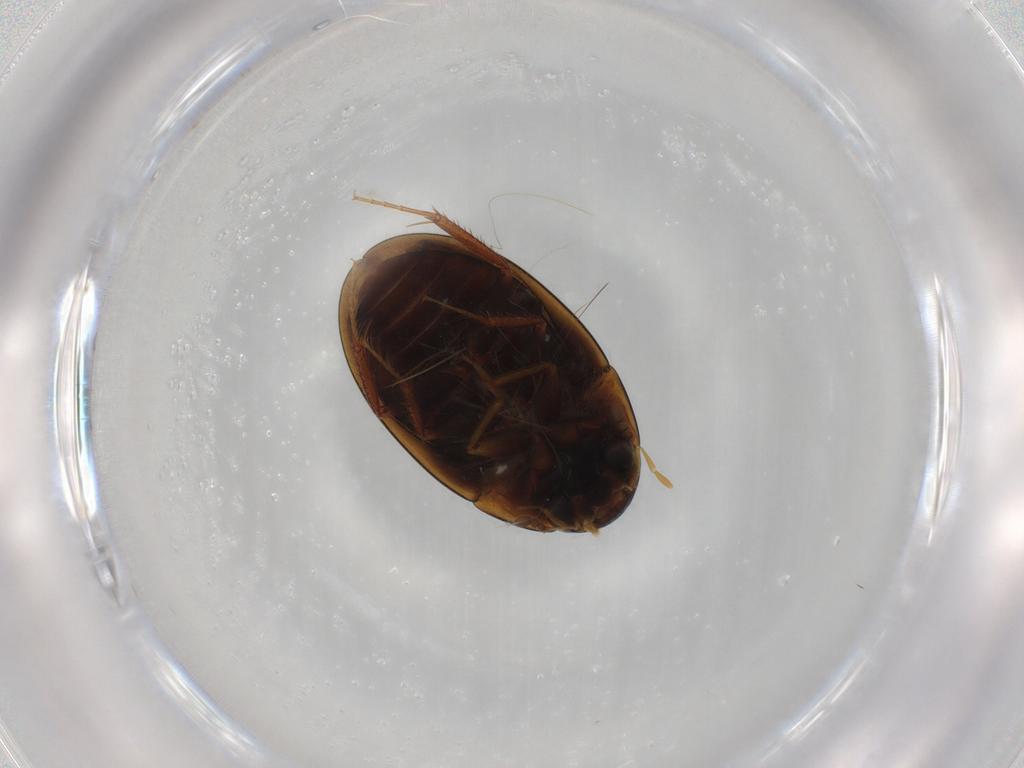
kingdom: Animalia
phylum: Arthropoda
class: Insecta
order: Coleoptera
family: Hydrophilidae
